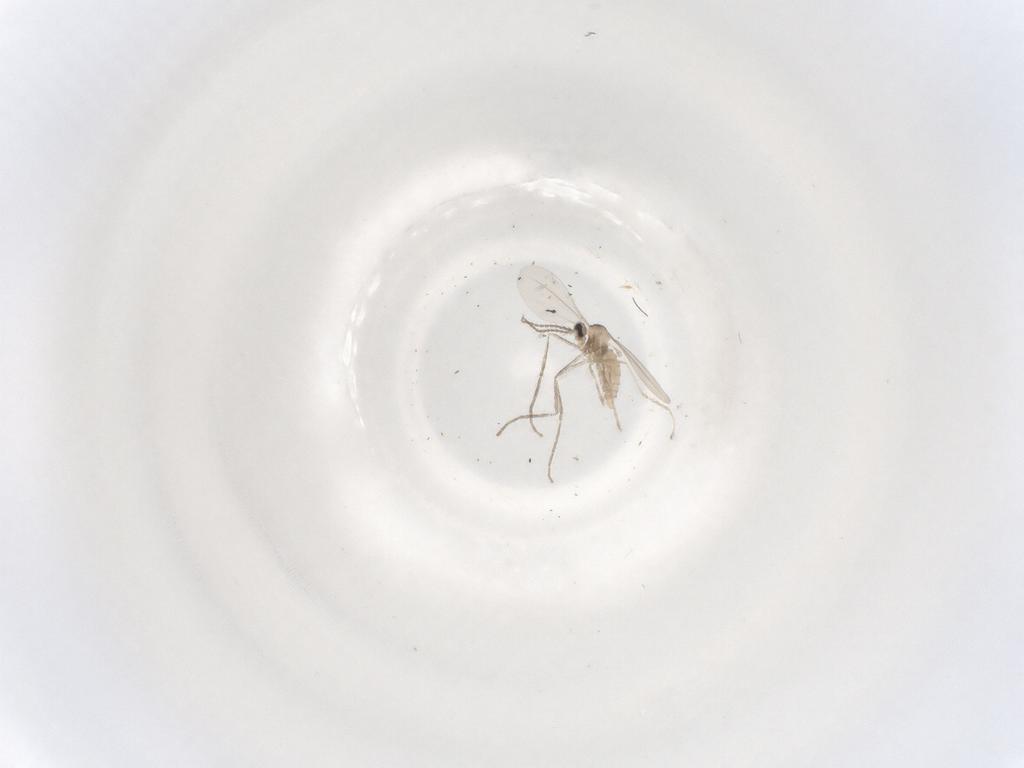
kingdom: Animalia
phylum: Arthropoda
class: Insecta
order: Diptera
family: Cecidomyiidae
